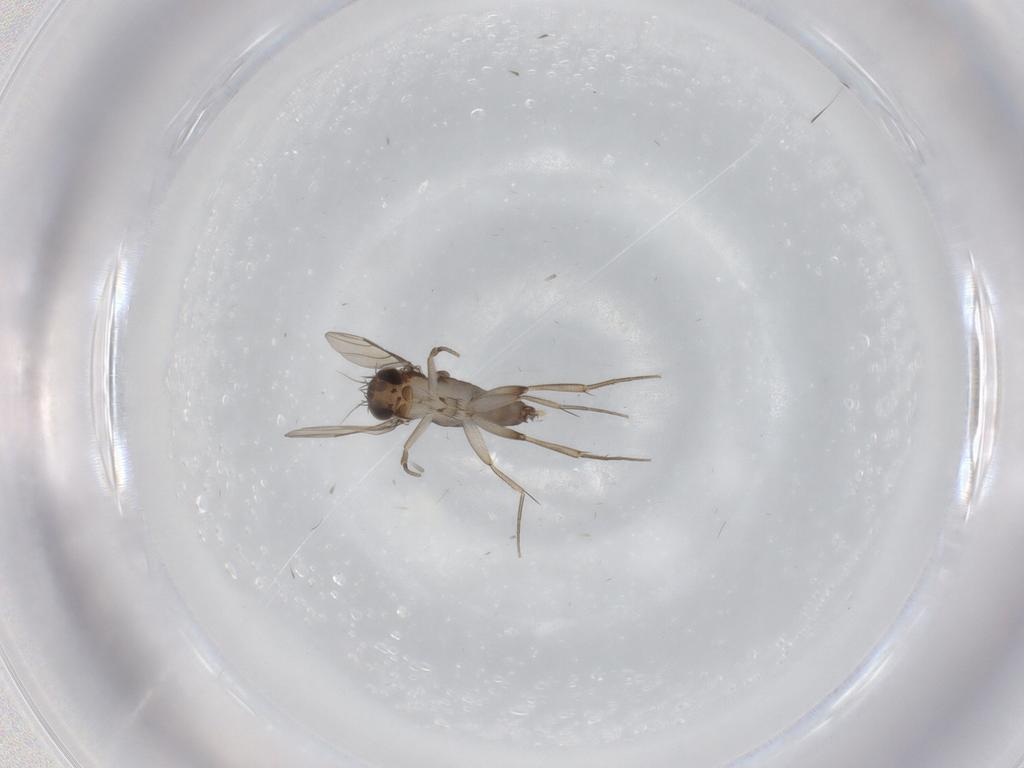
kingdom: Animalia
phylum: Arthropoda
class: Insecta
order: Diptera
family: Phoridae
